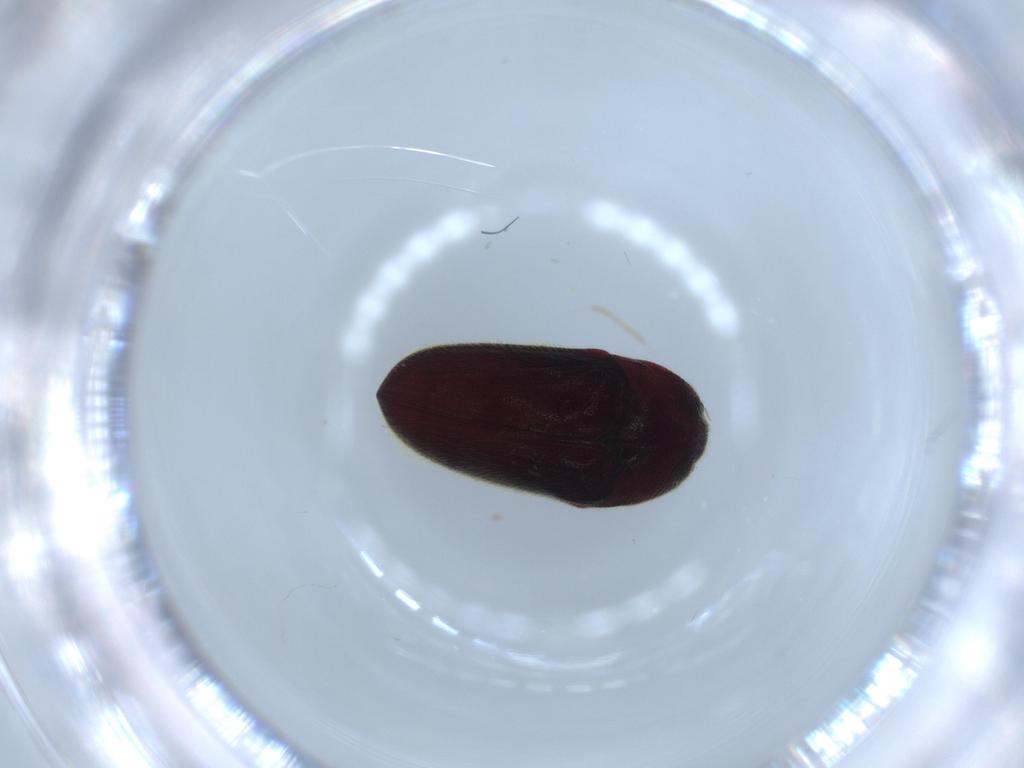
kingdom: Animalia
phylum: Arthropoda
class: Insecta
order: Coleoptera
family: Throscidae
